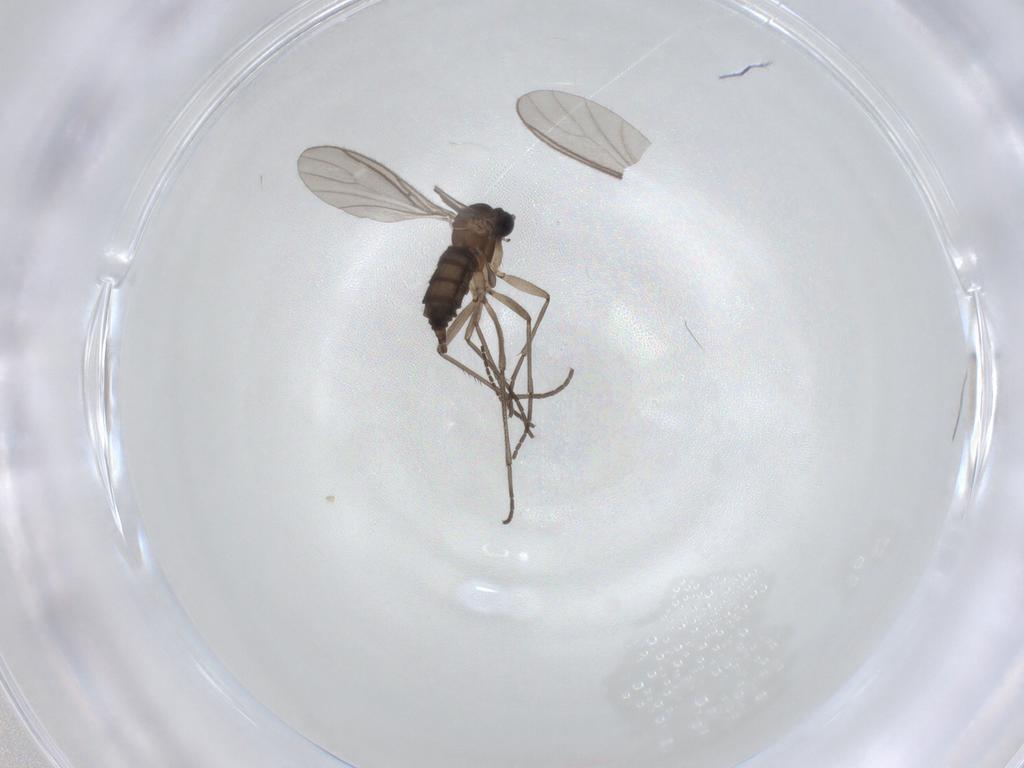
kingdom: Animalia
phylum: Arthropoda
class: Insecta
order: Diptera
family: Sciaridae
